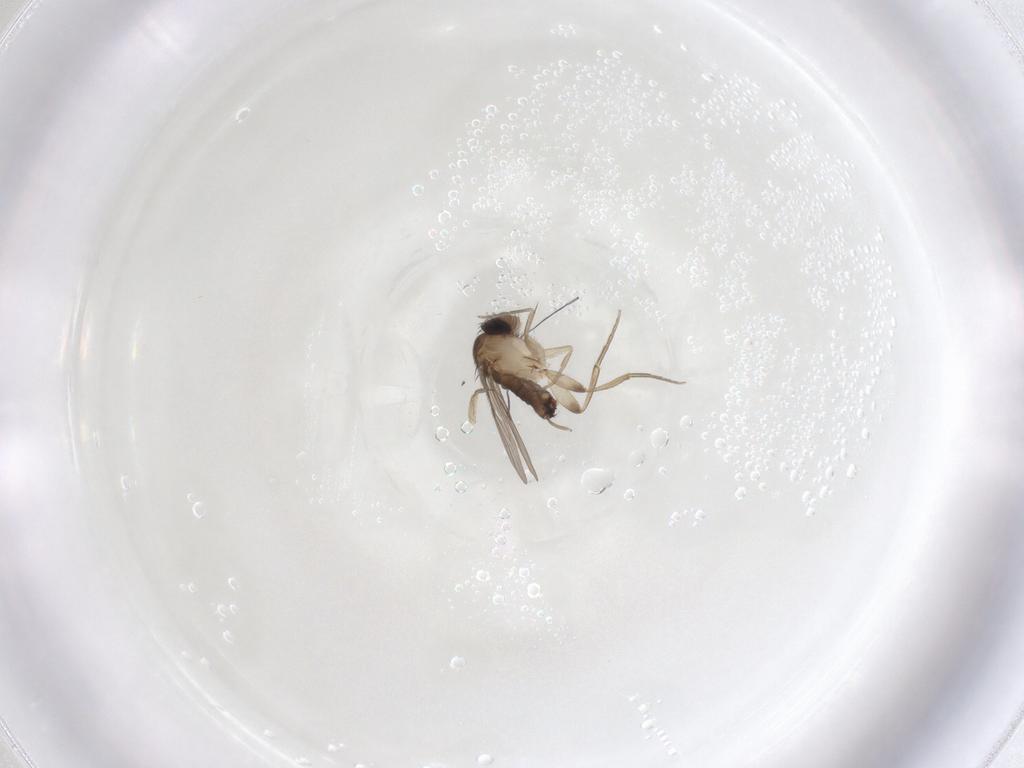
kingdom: Animalia
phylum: Arthropoda
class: Insecta
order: Diptera
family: Phoridae
